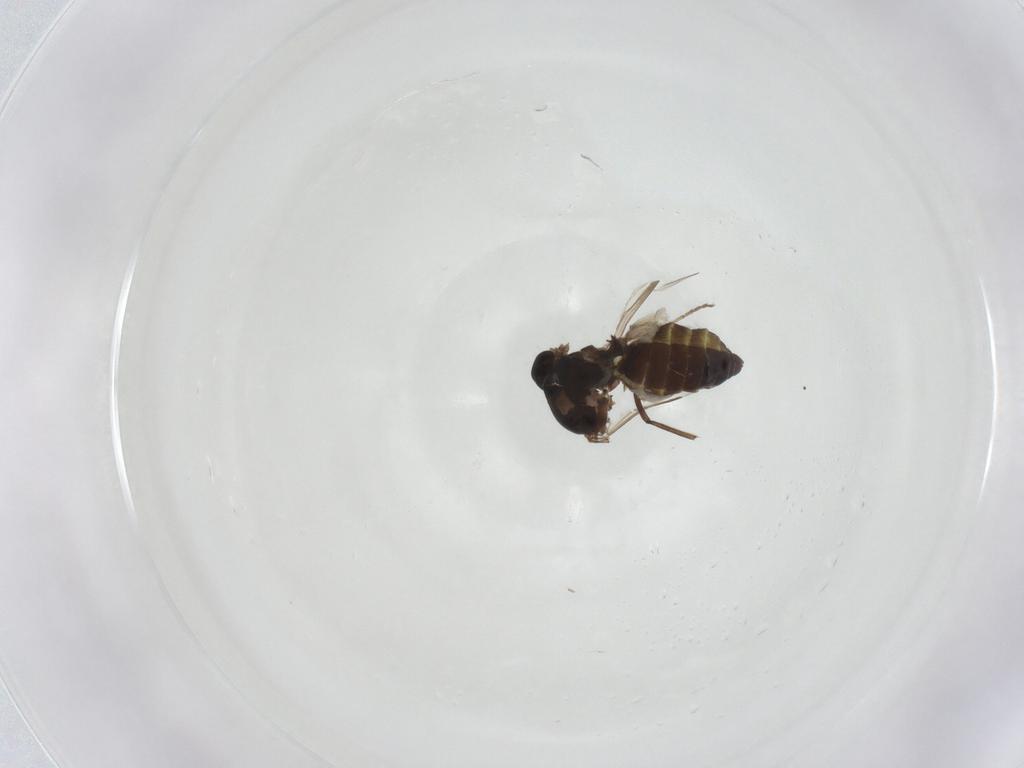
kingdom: Animalia
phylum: Arthropoda
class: Insecta
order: Diptera
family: Ceratopogonidae
